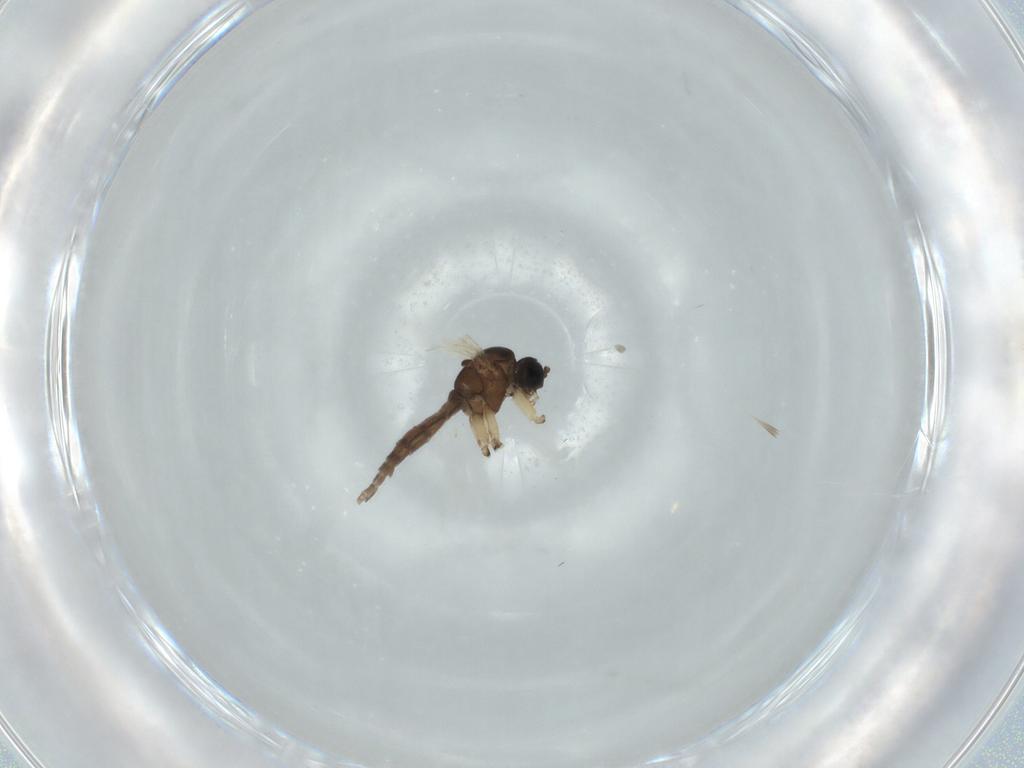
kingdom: Animalia
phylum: Arthropoda
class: Insecta
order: Diptera
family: Sciaridae
